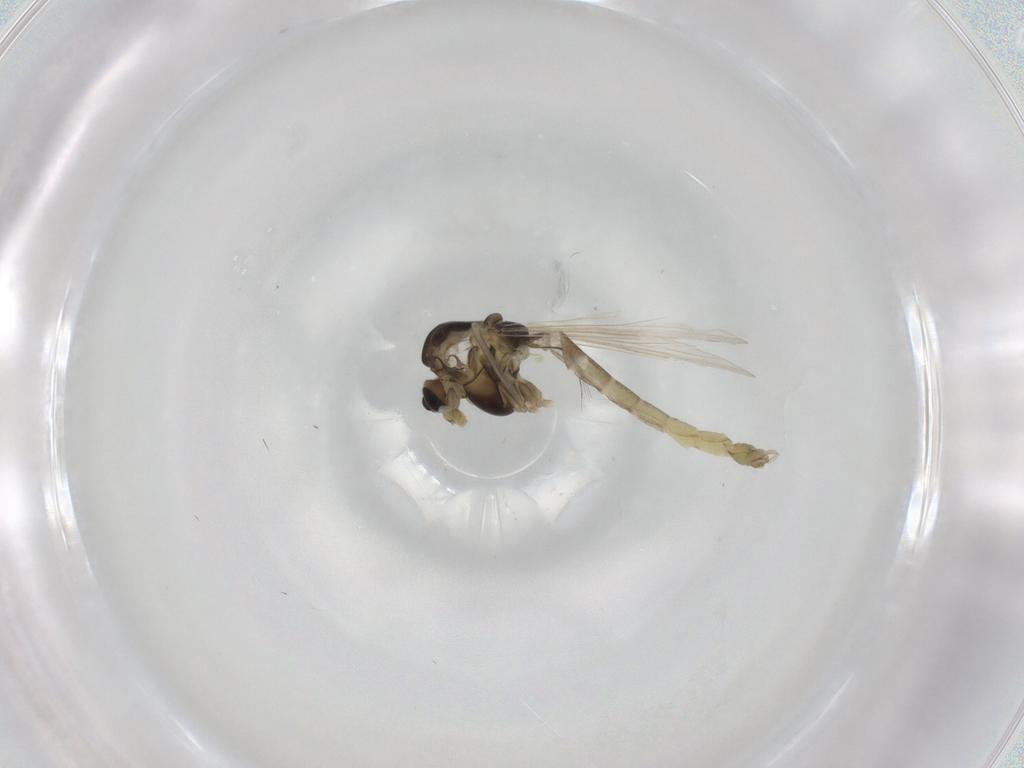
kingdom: Animalia
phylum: Arthropoda
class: Insecta
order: Diptera
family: Chironomidae
